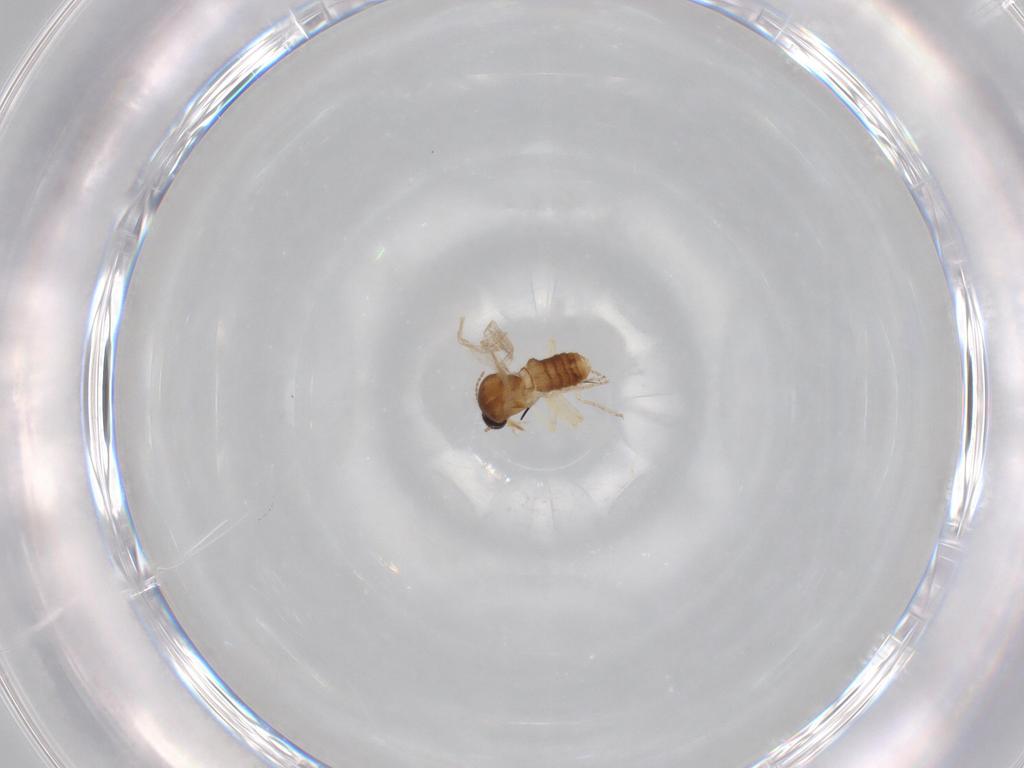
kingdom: Animalia
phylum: Arthropoda
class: Insecta
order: Diptera
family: Ceratopogonidae
